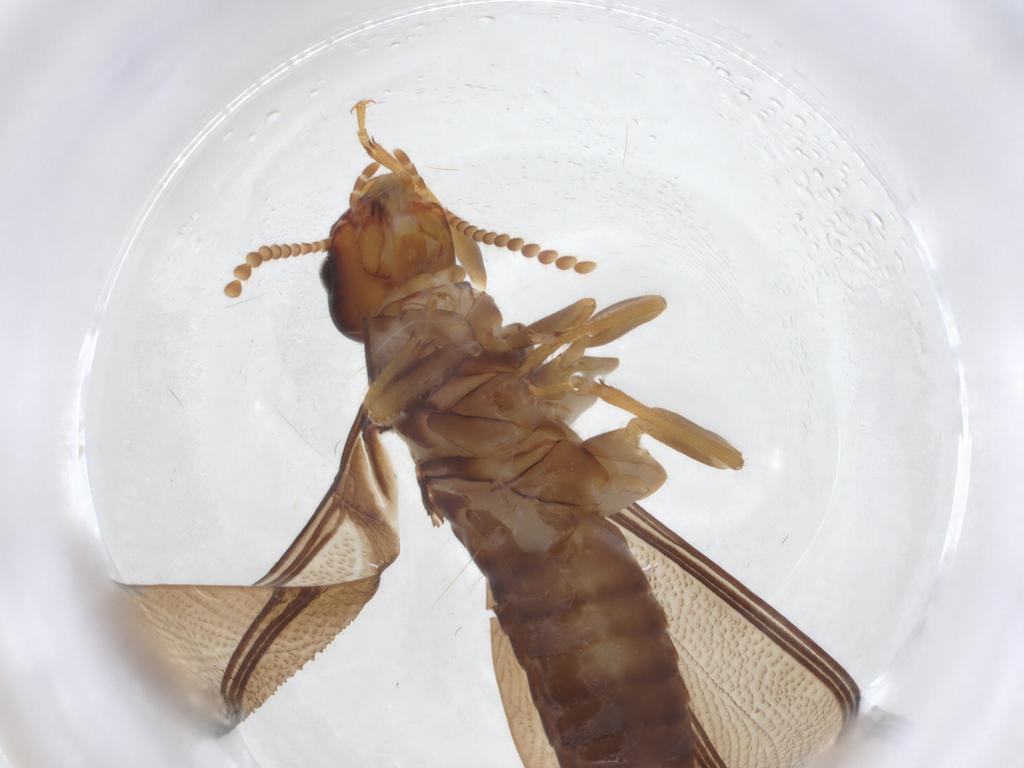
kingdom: Animalia
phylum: Arthropoda
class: Insecta
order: Blattodea
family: Kalotermitidae
